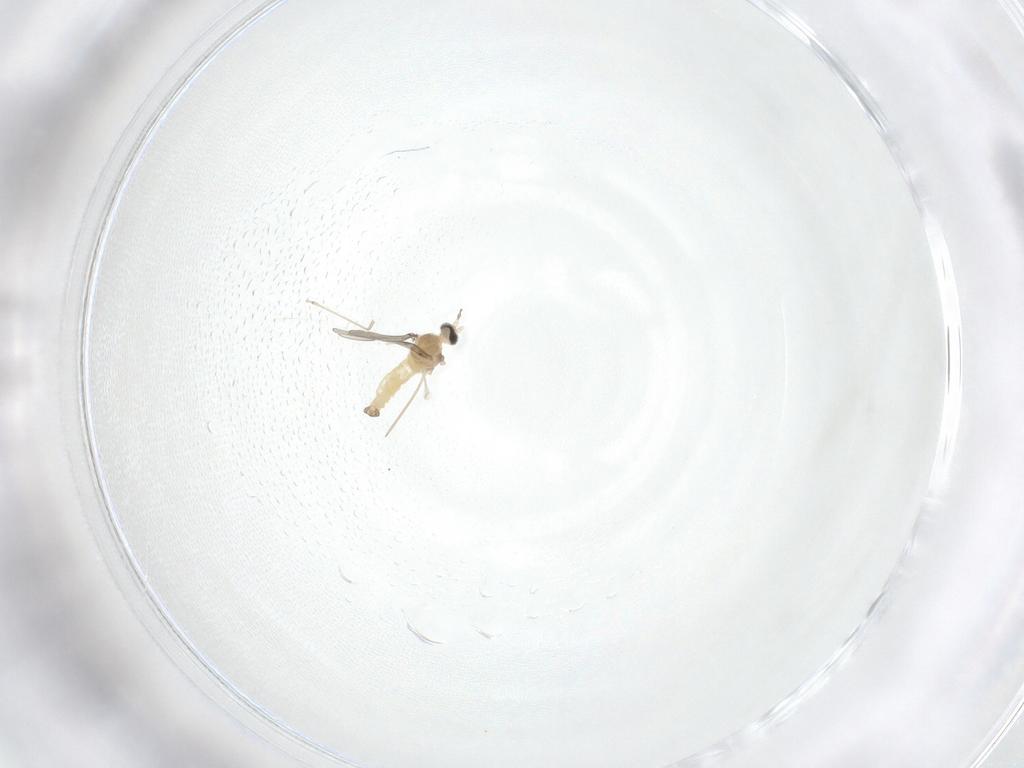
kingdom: Animalia
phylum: Arthropoda
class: Insecta
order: Diptera
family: Cecidomyiidae
